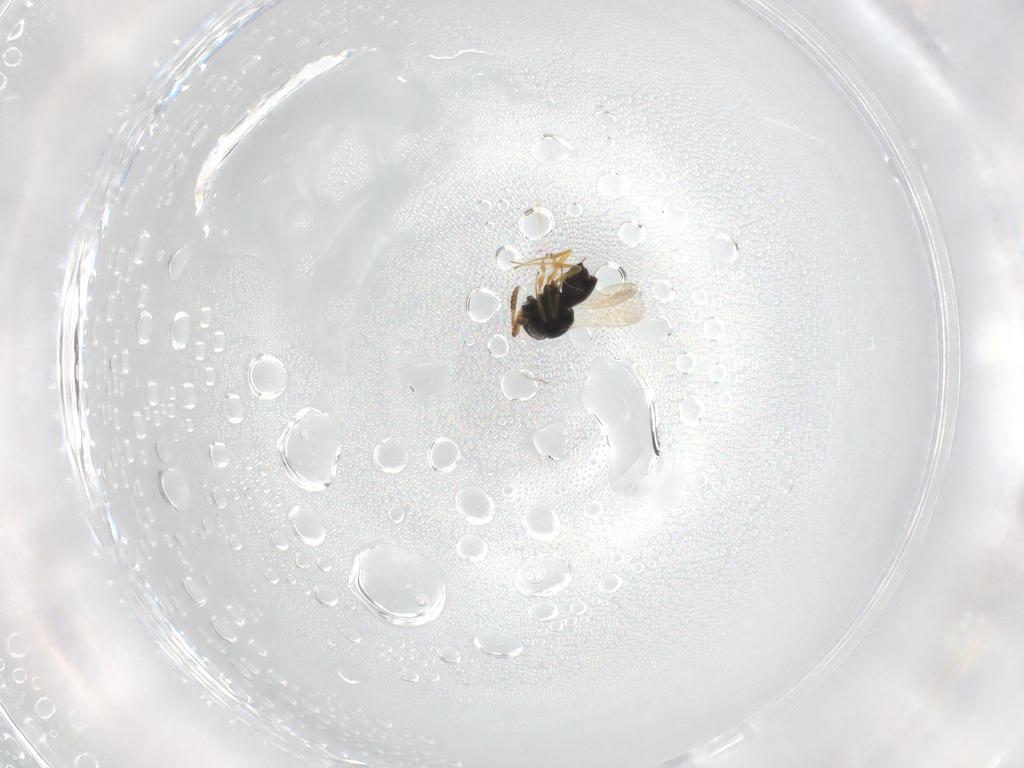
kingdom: Animalia
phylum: Arthropoda
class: Insecta
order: Hymenoptera
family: Scelionidae
